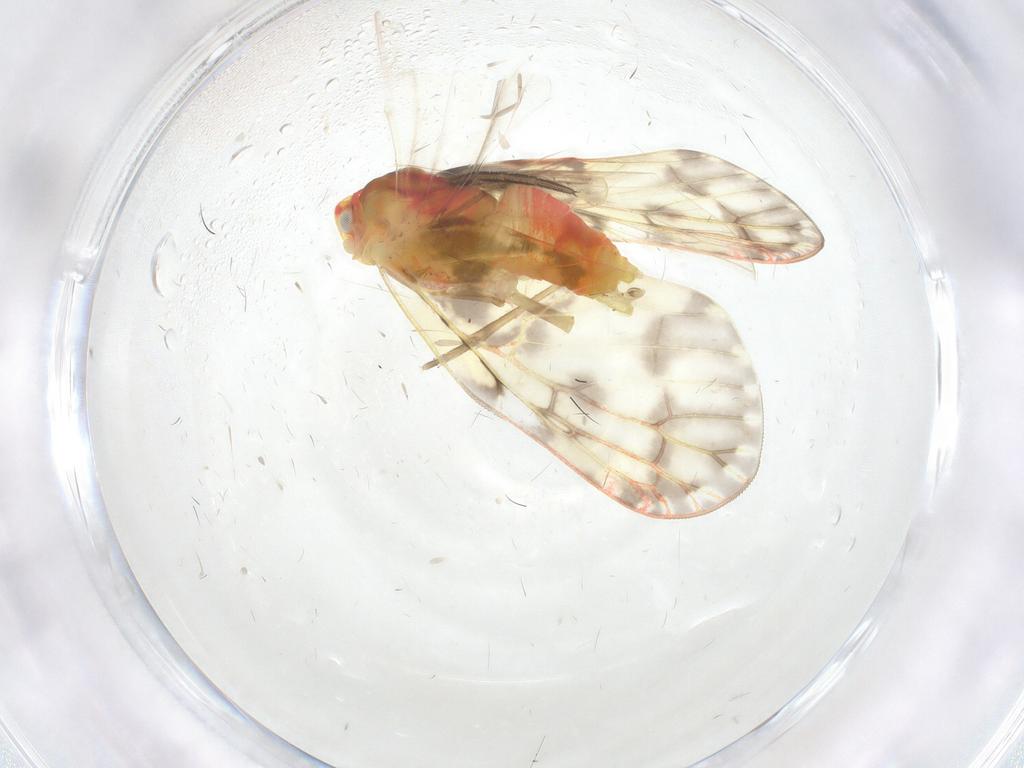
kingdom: Animalia
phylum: Arthropoda
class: Insecta
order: Hemiptera
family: Derbidae
